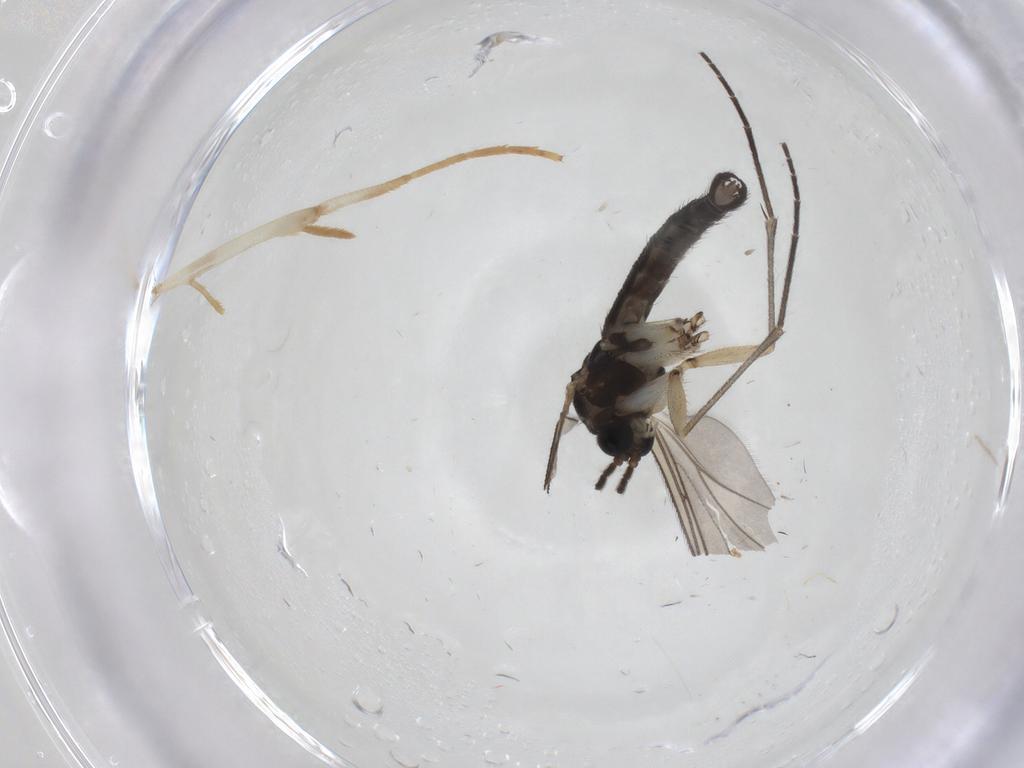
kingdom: Animalia
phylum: Arthropoda
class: Insecta
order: Diptera
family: Sciaridae
